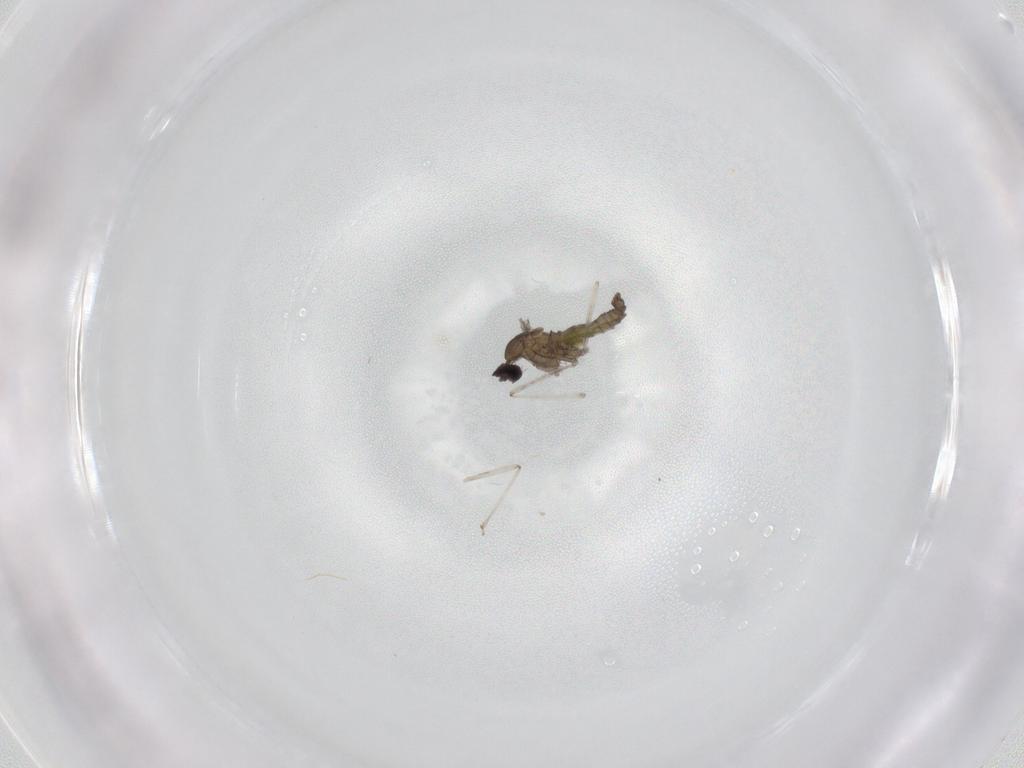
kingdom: Animalia
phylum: Arthropoda
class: Insecta
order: Diptera
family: Cecidomyiidae
